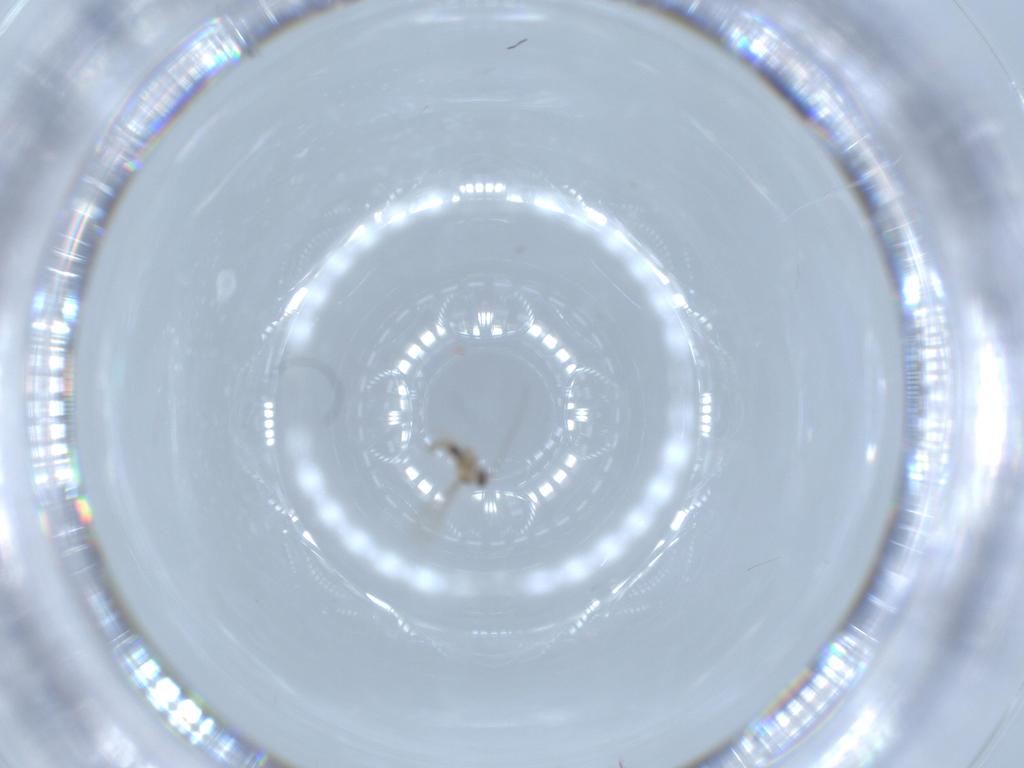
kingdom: Animalia
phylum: Arthropoda
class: Insecta
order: Diptera
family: Cecidomyiidae
